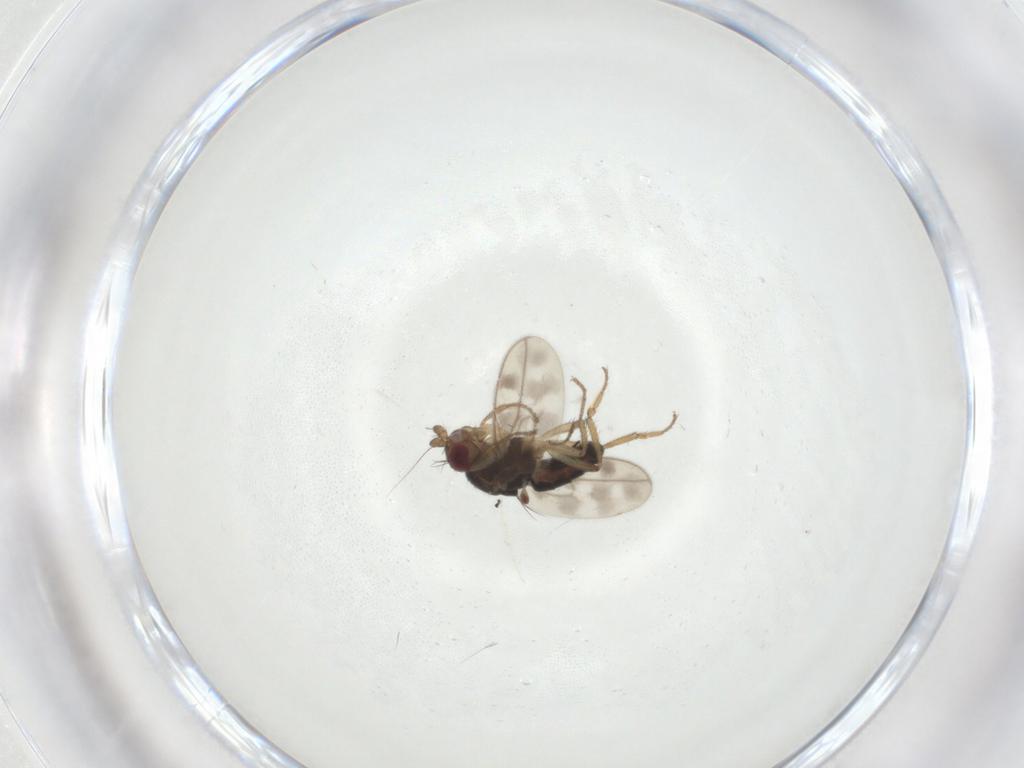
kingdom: Animalia
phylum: Arthropoda
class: Insecta
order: Diptera
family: Sphaeroceridae
